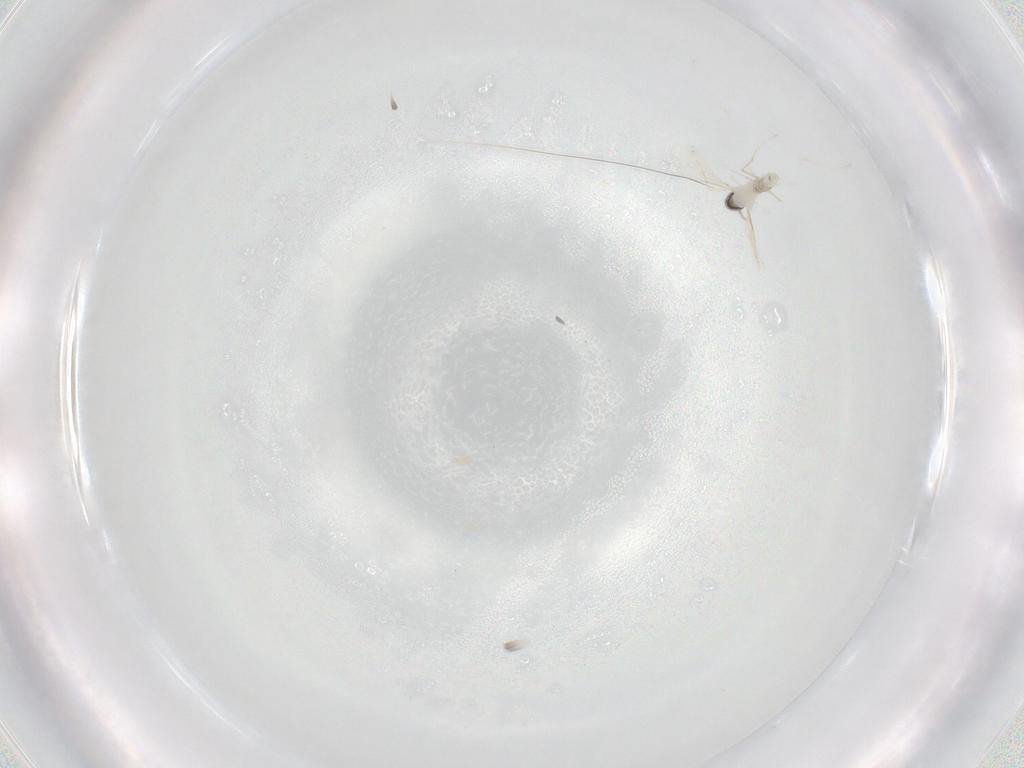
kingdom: Animalia
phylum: Arthropoda
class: Insecta
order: Diptera
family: Cecidomyiidae
